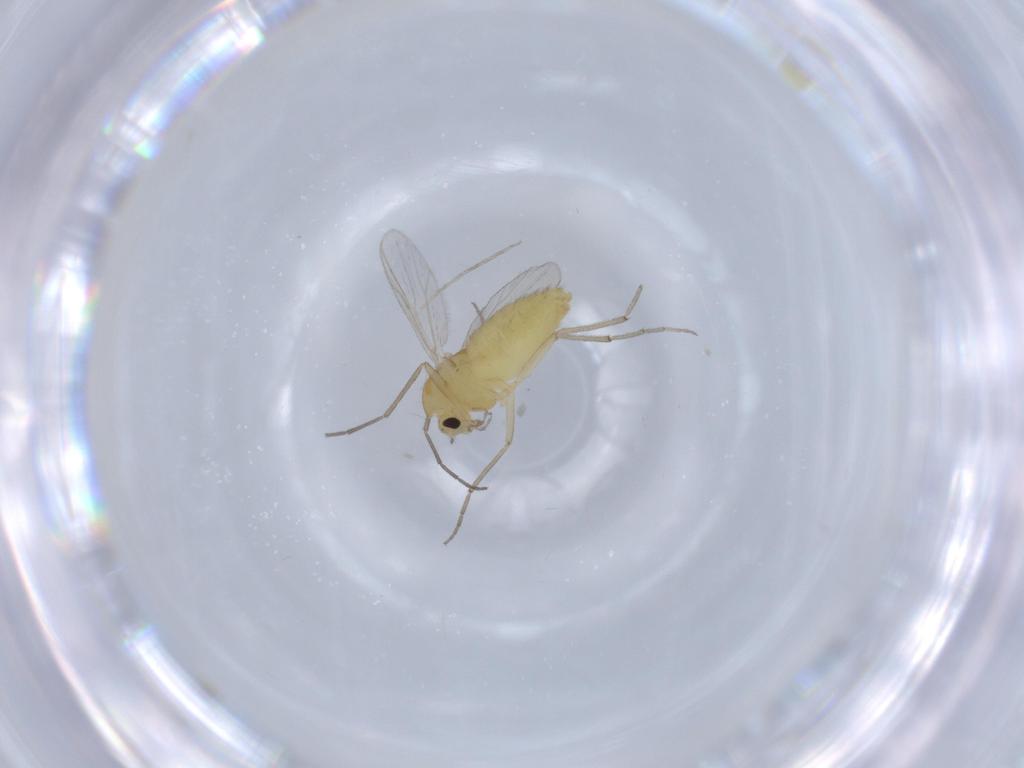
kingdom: Animalia
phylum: Arthropoda
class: Insecta
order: Diptera
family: Chironomidae
